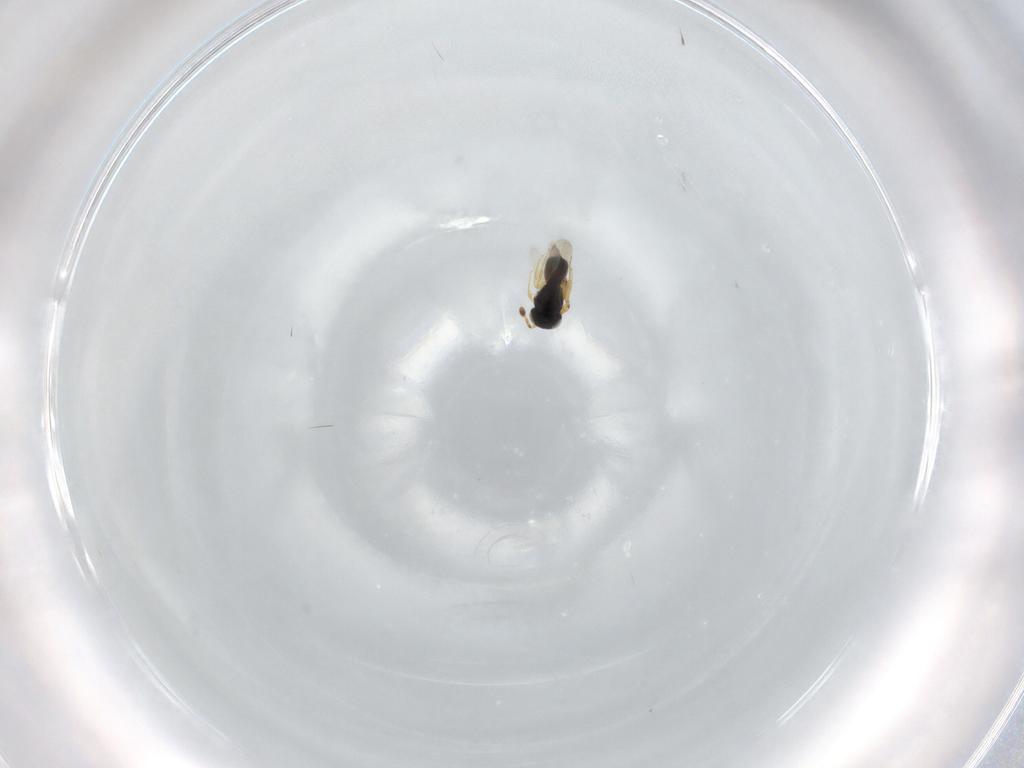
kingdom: Animalia
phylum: Arthropoda
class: Insecta
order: Hymenoptera
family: Scelionidae
